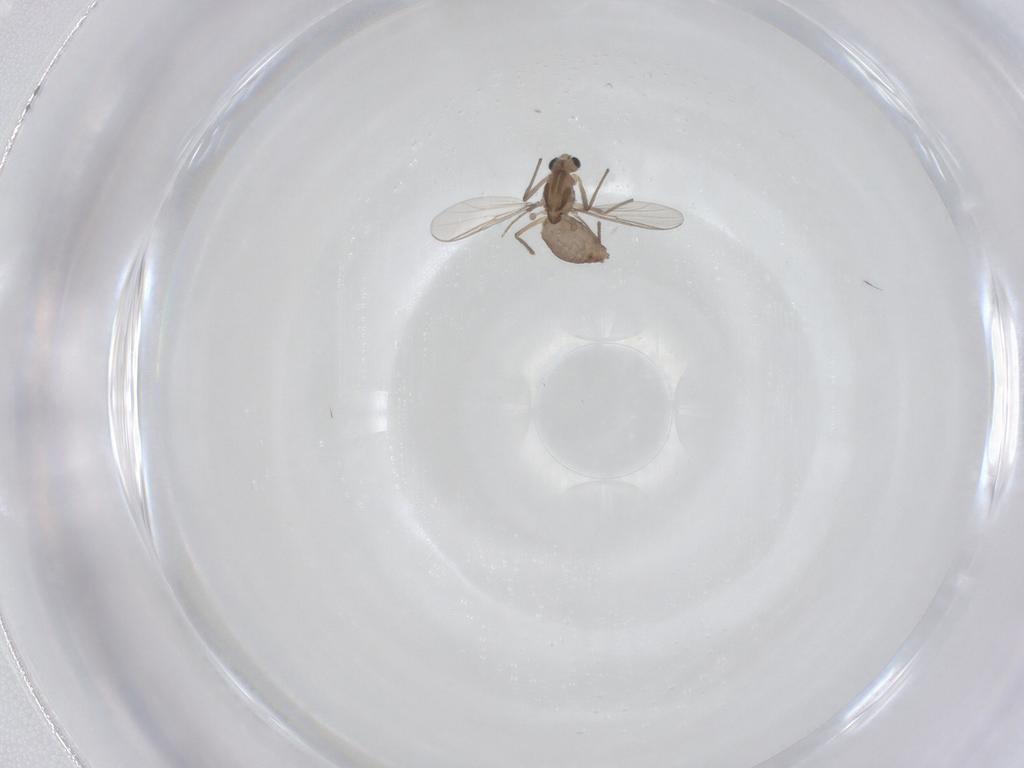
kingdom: Animalia
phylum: Arthropoda
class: Insecta
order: Diptera
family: Chironomidae
